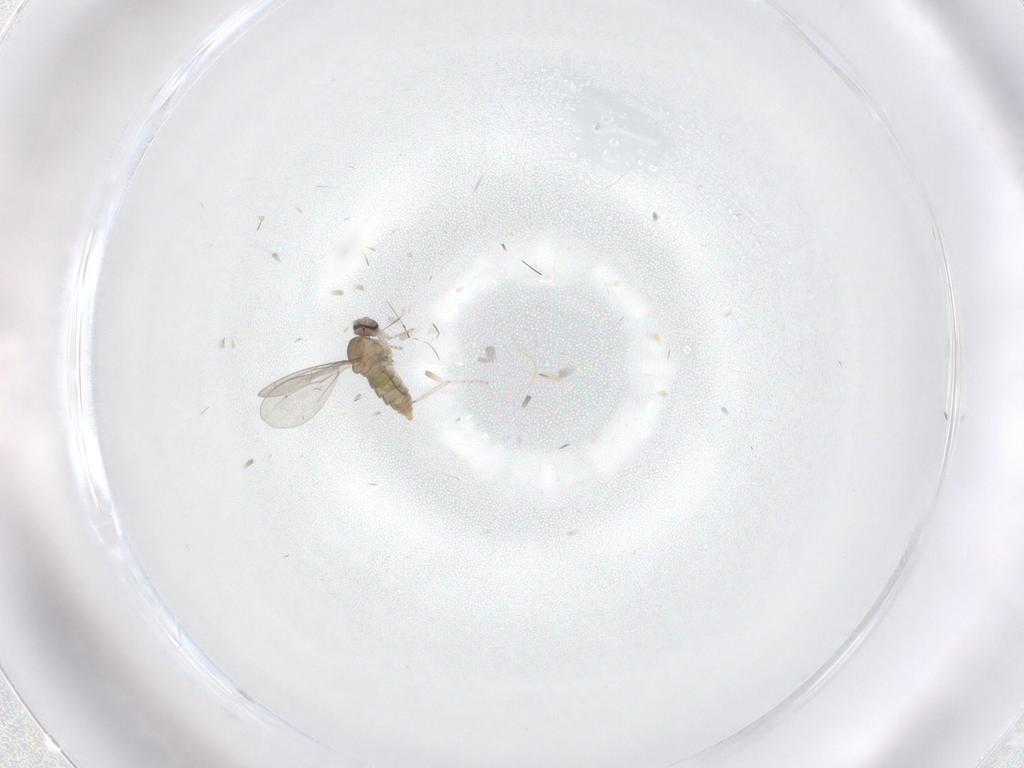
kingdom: Animalia
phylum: Arthropoda
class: Insecta
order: Diptera
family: Cecidomyiidae
